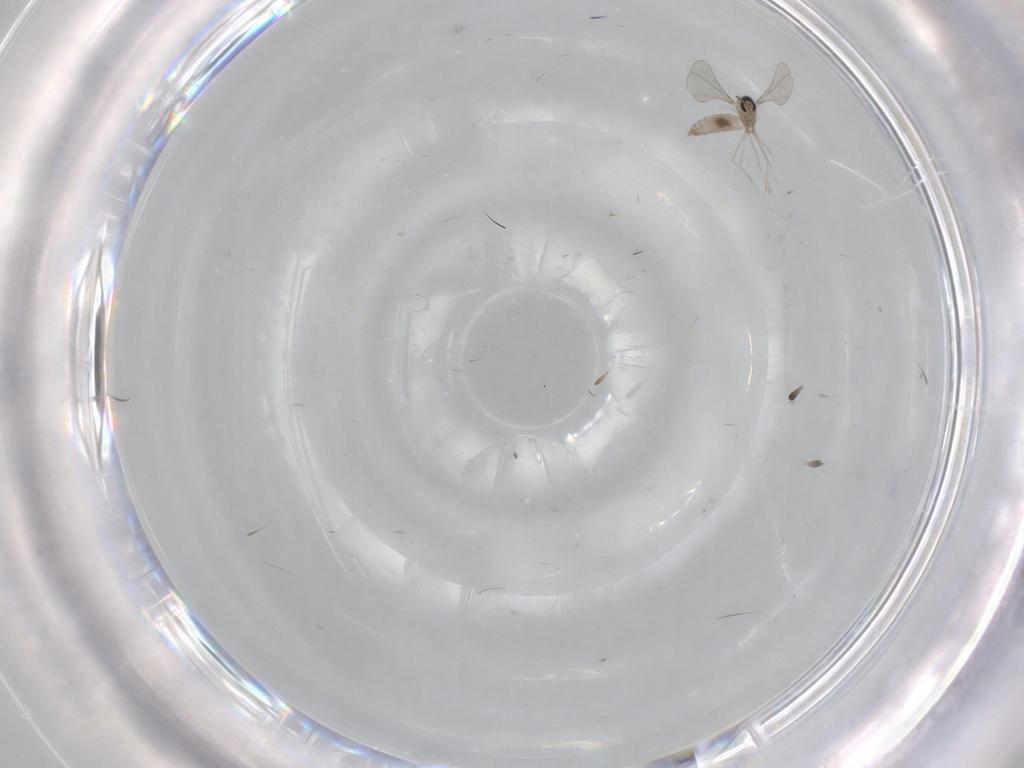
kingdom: Animalia
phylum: Arthropoda
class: Insecta
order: Diptera
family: Cecidomyiidae
